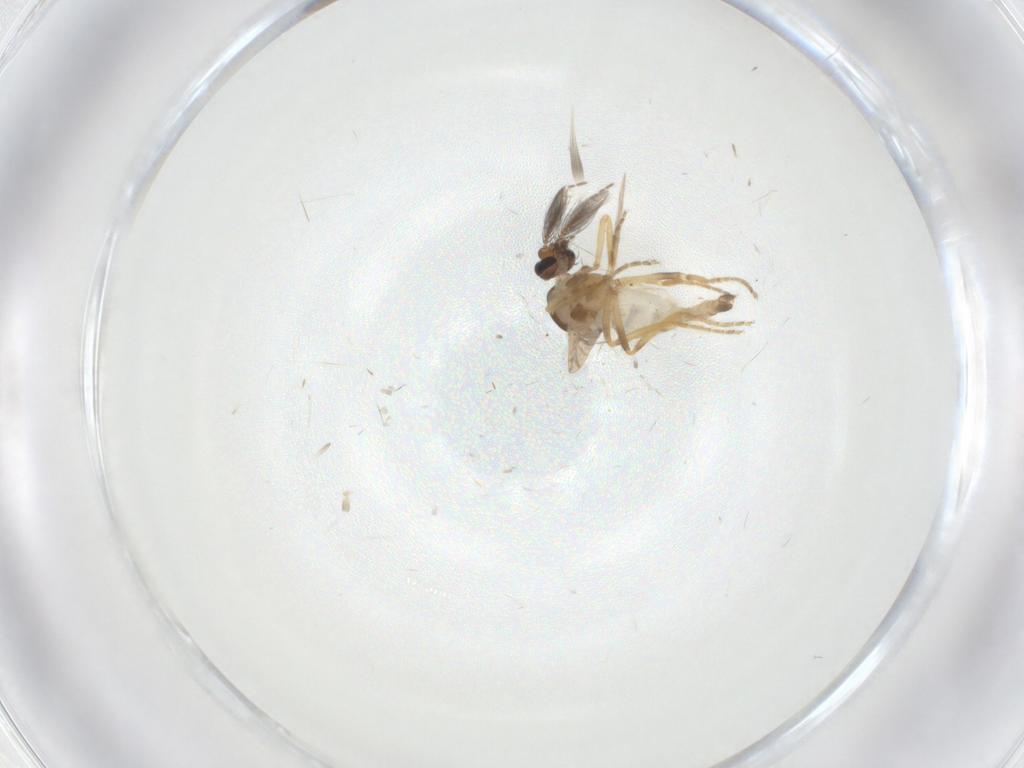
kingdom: Animalia
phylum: Arthropoda
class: Insecta
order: Diptera
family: Ceratopogonidae
